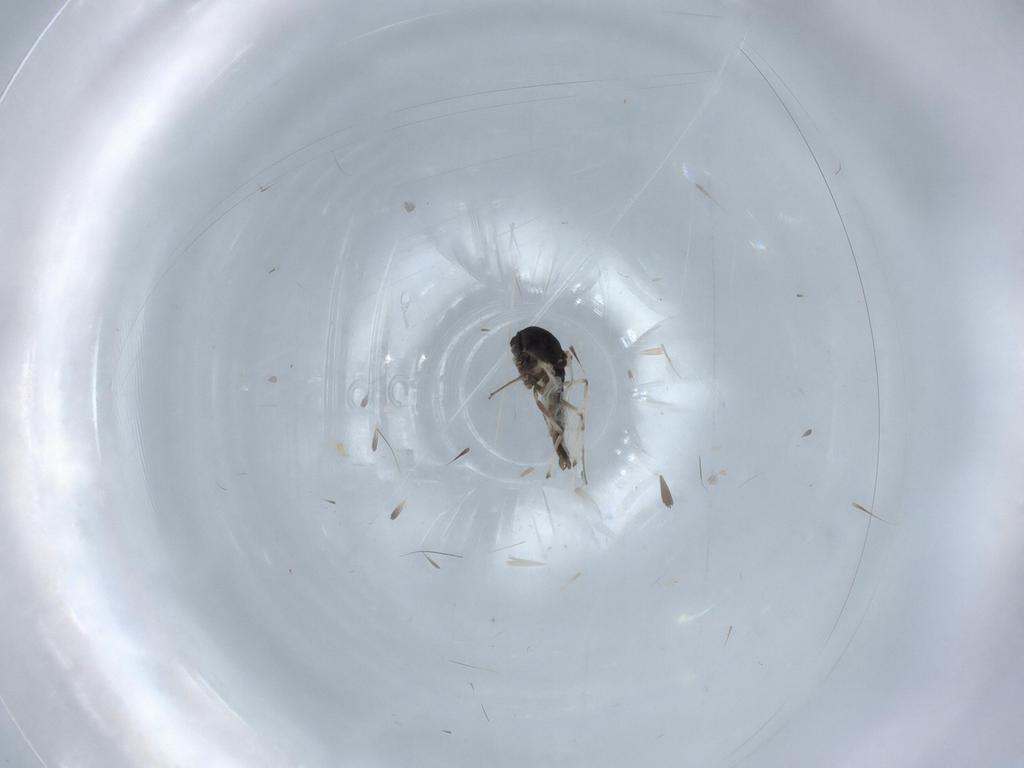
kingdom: Animalia
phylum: Arthropoda
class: Insecta
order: Diptera
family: Chironomidae
